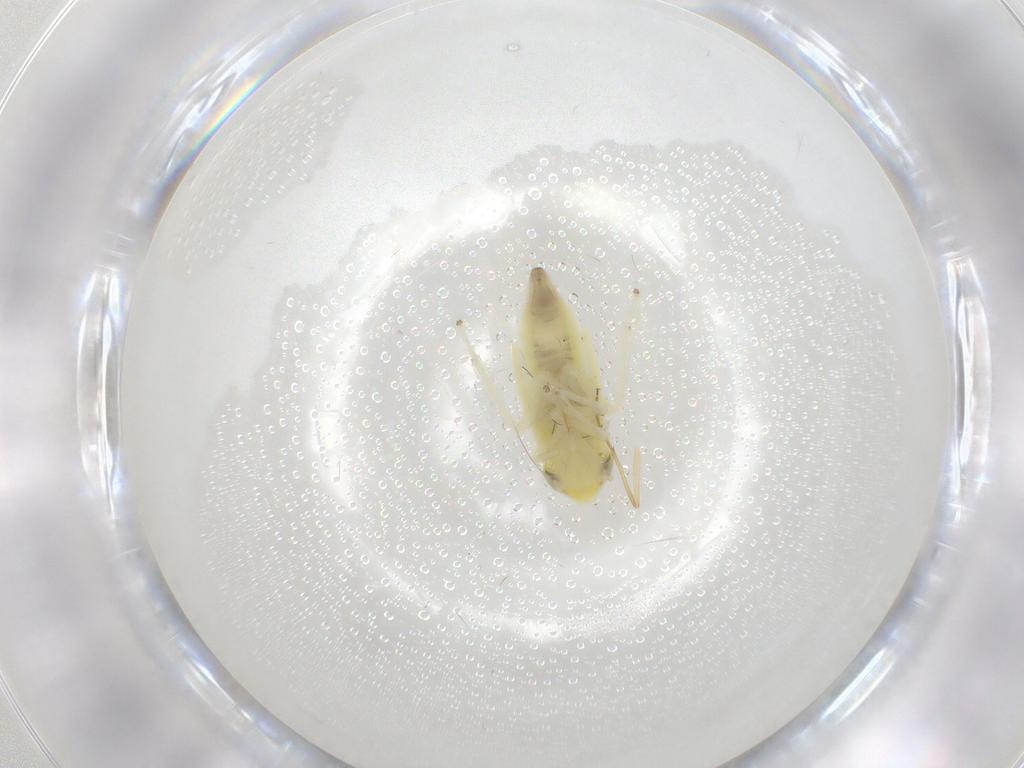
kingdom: Animalia
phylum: Arthropoda
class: Insecta
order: Hemiptera
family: Cicadellidae
